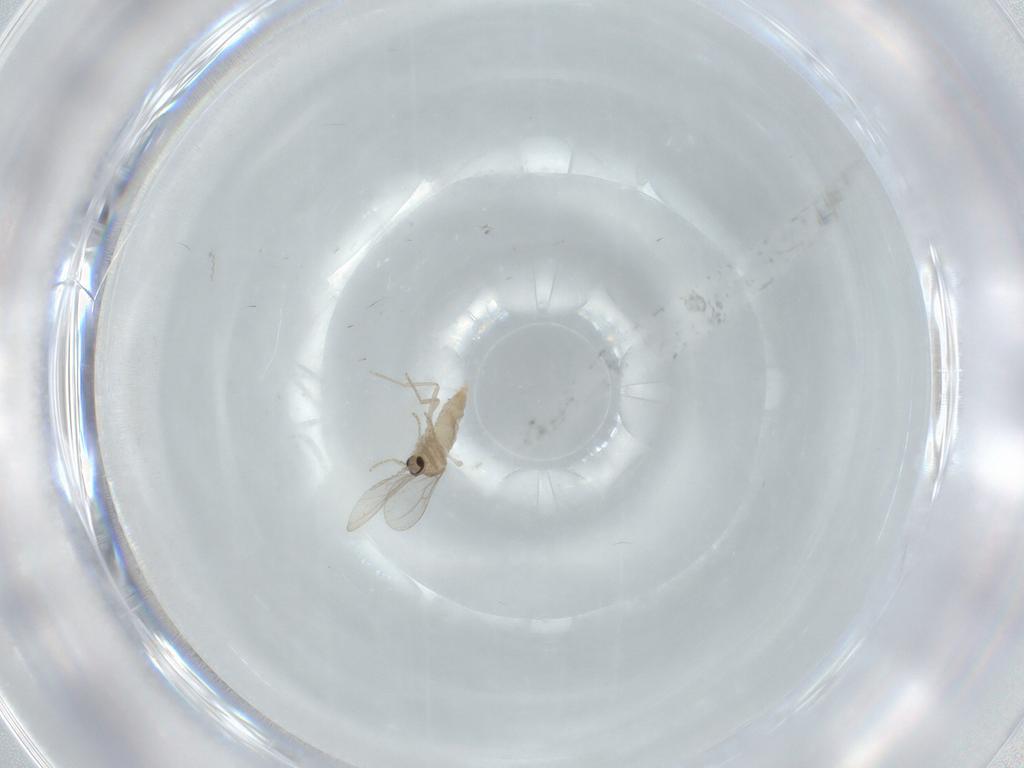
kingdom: Animalia
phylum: Arthropoda
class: Insecta
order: Diptera
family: Cecidomyiidae
